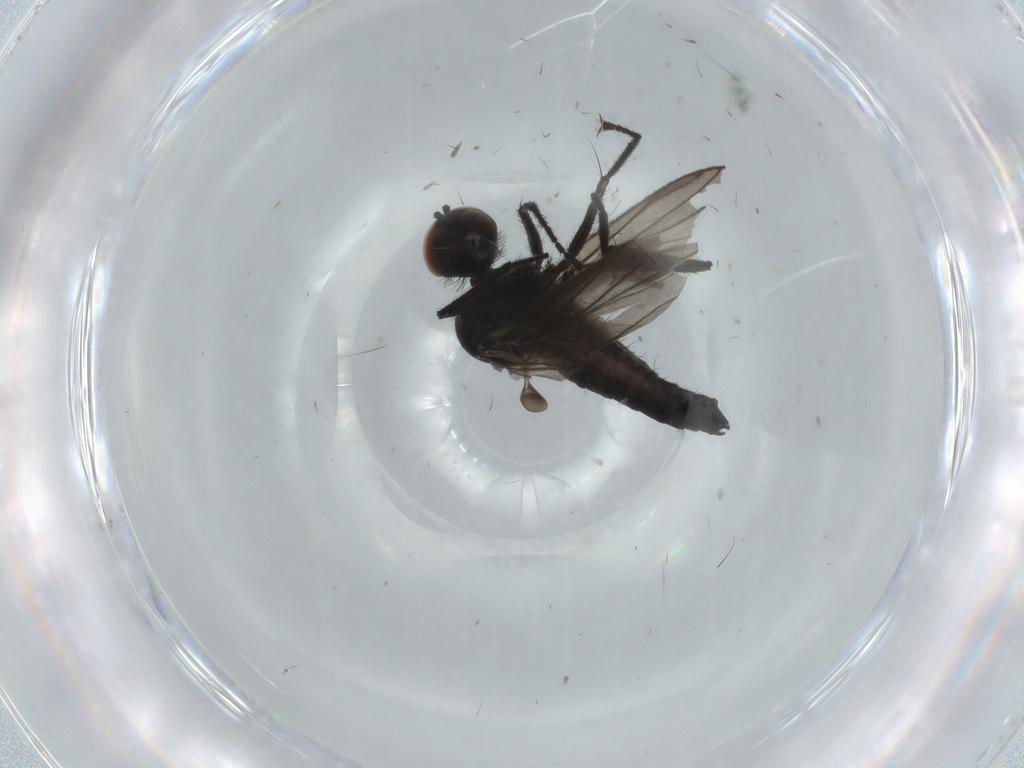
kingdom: Animalia
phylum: Arthropoda
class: Insecta
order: Diptera
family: Hybotidae
